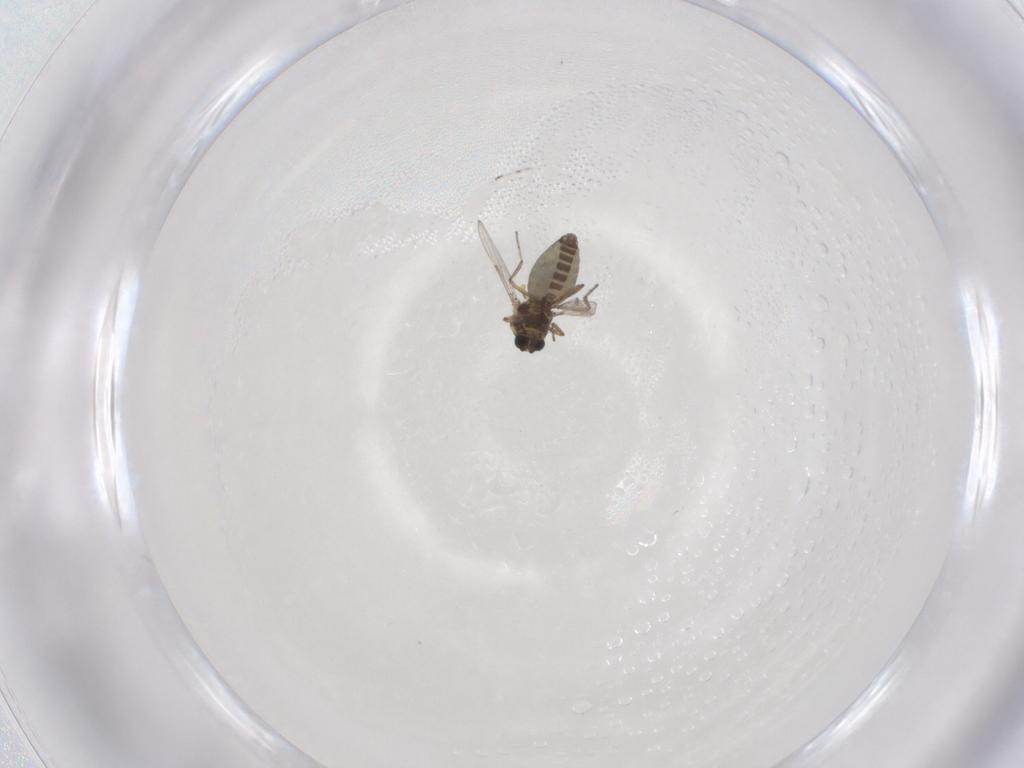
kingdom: Animalia
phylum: Arthropoda
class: Insecta
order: Diptera
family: Ceratopogonidae
